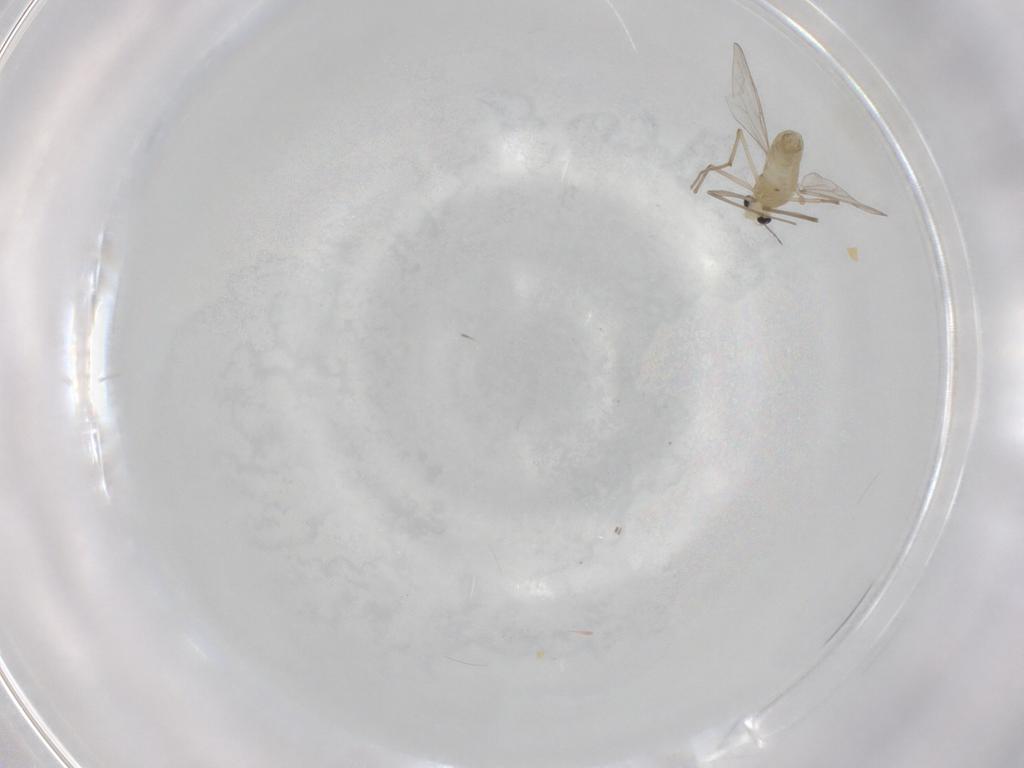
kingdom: Animalia
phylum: Arthropoda
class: Insecta
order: Diptera
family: Chironomidae
